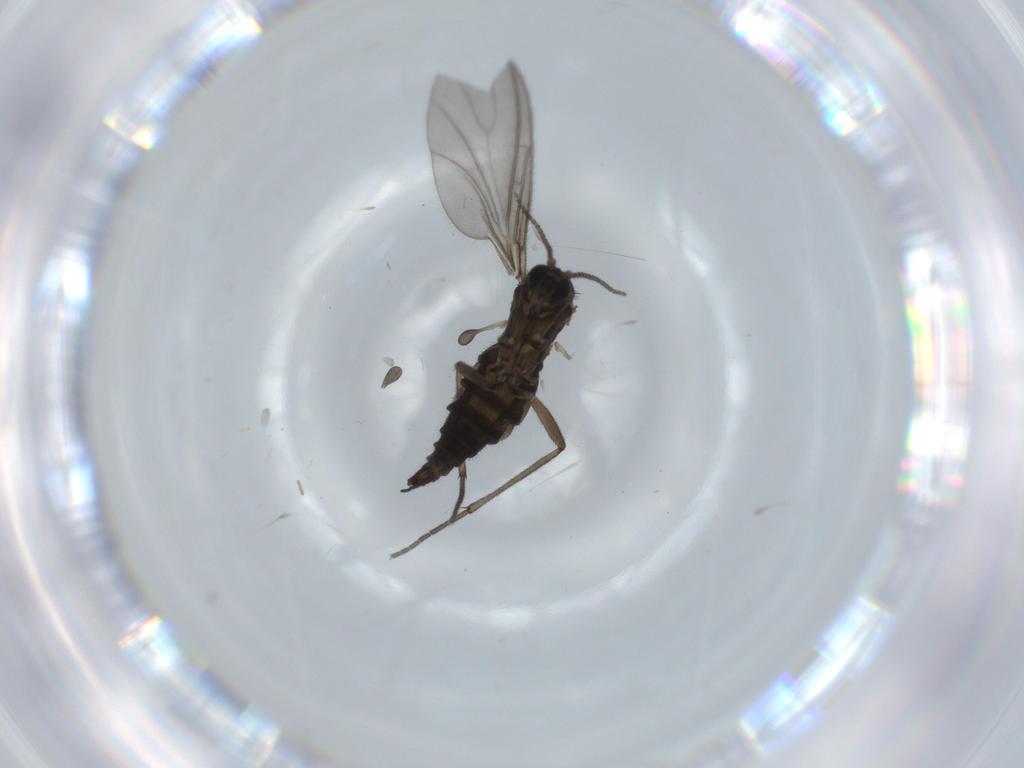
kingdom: Animalia
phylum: Arthropoda
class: Insecta
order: Diptera
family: Sciaridae
